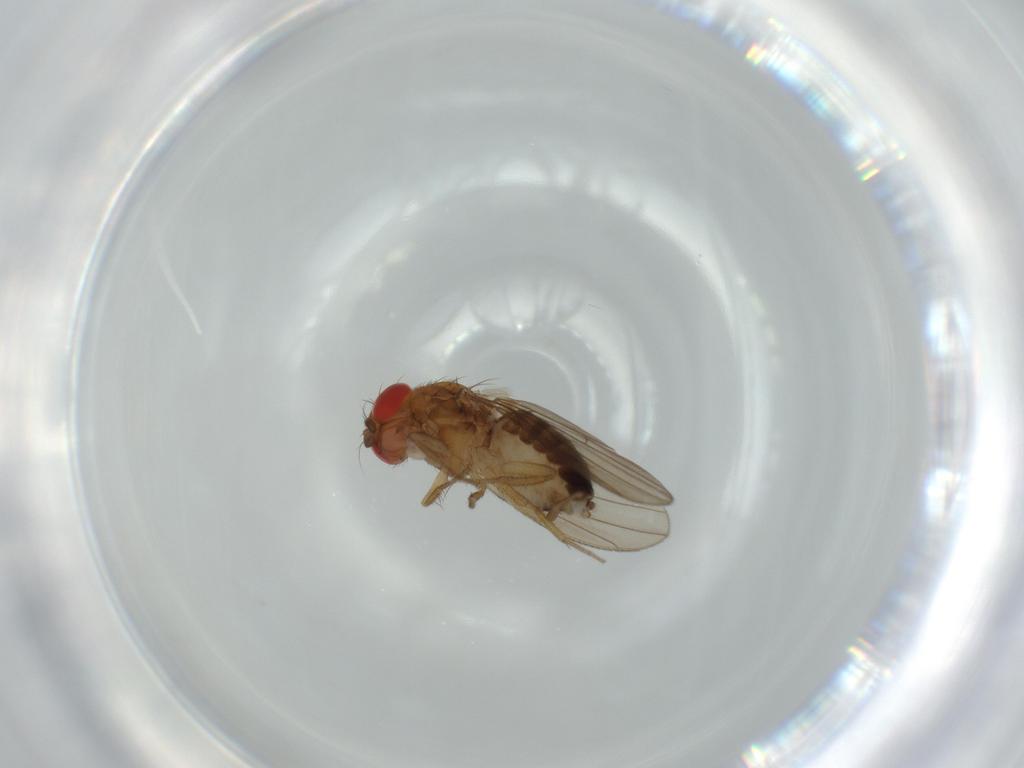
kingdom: Animalia
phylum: Arthropoda
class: Insecta
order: Diptera
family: Drosophilidae
